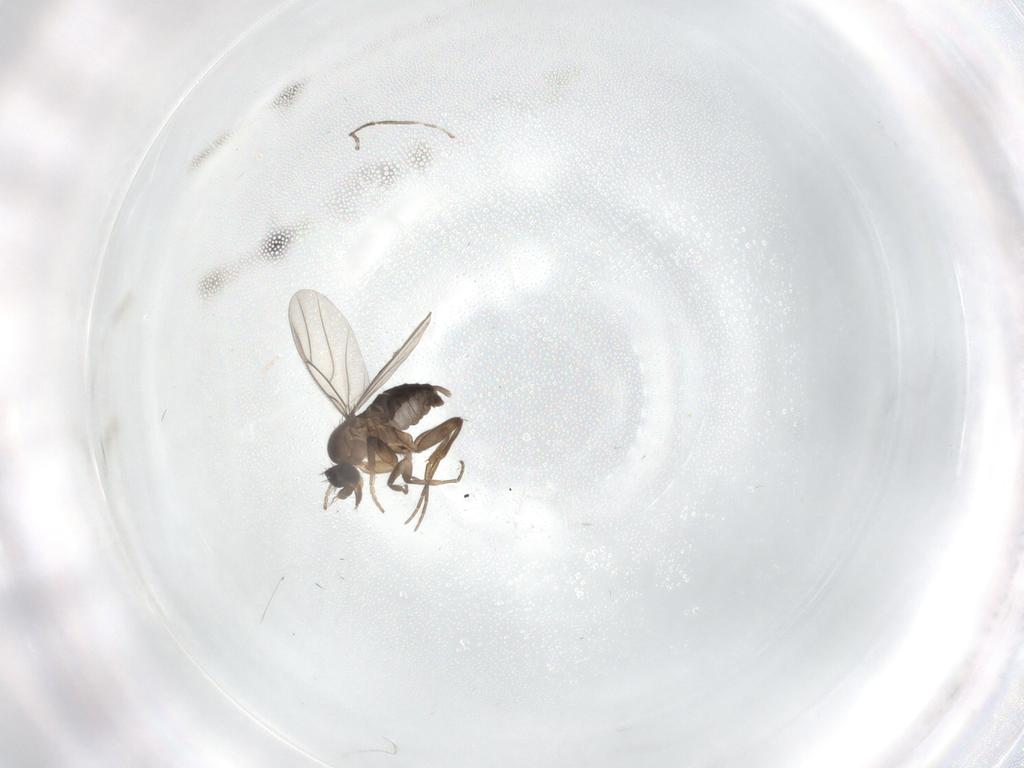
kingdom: Animalia
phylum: Arthropoda
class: Insecta
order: Diptera
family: Phoridae
